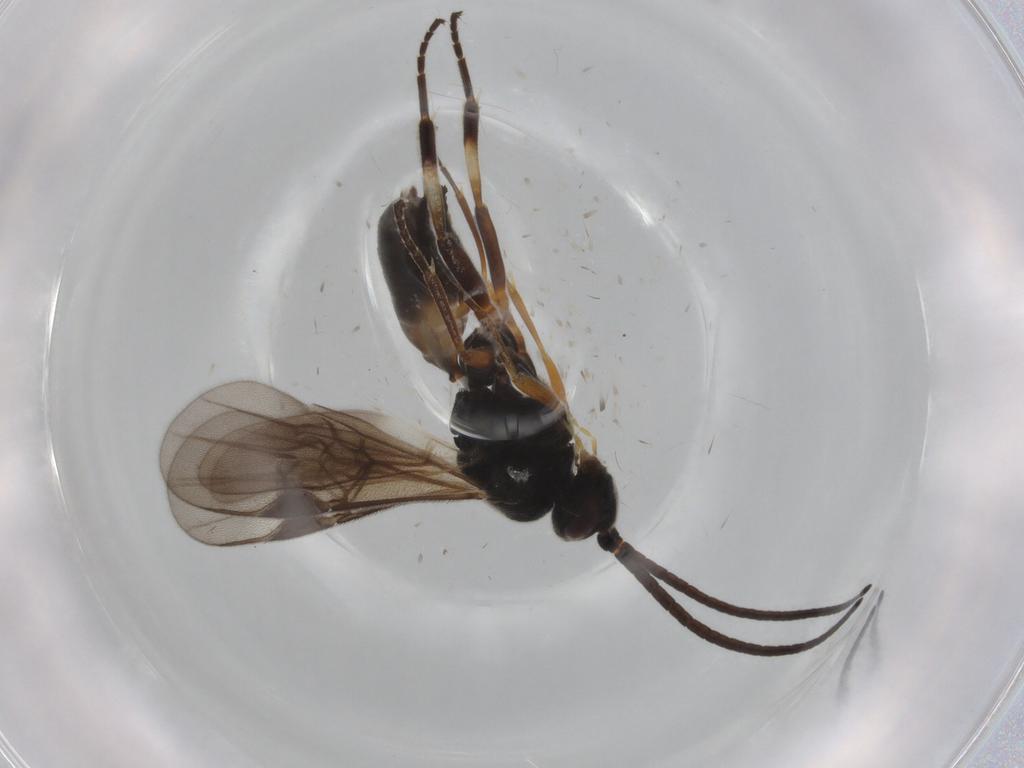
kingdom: Animalia
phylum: Arthropoda
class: Insecta
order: Hymenoptera
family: Braconidae
